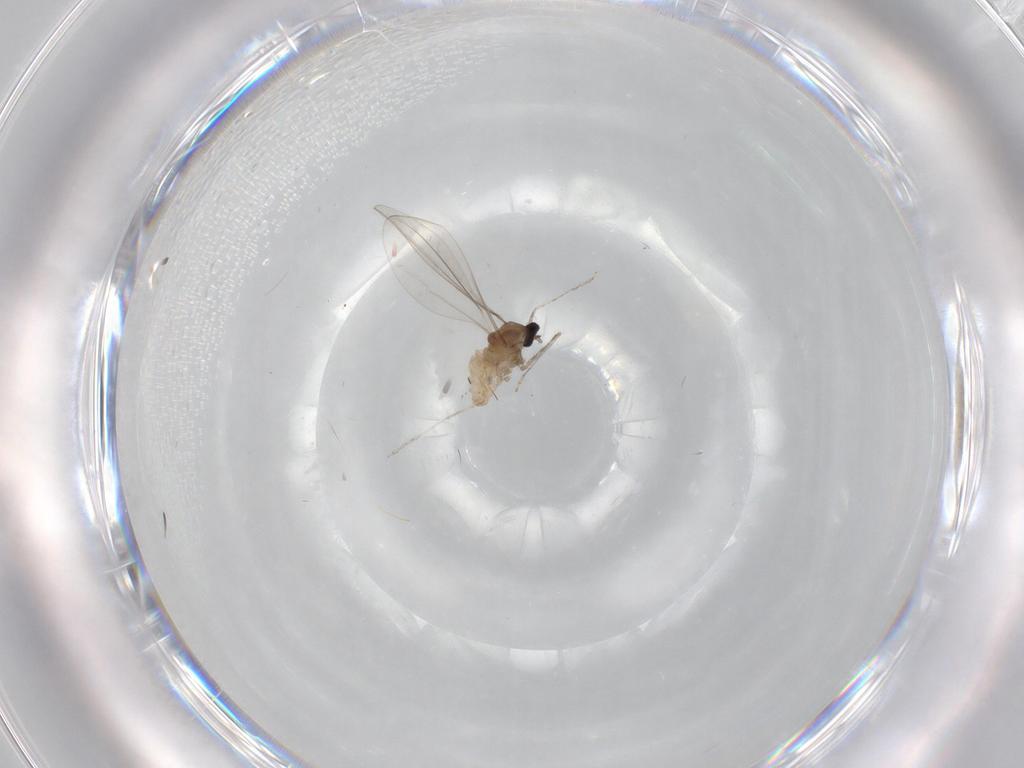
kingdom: Animalia
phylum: Arthropoda
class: Insecta
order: Diptera
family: Cecidomyiidae
